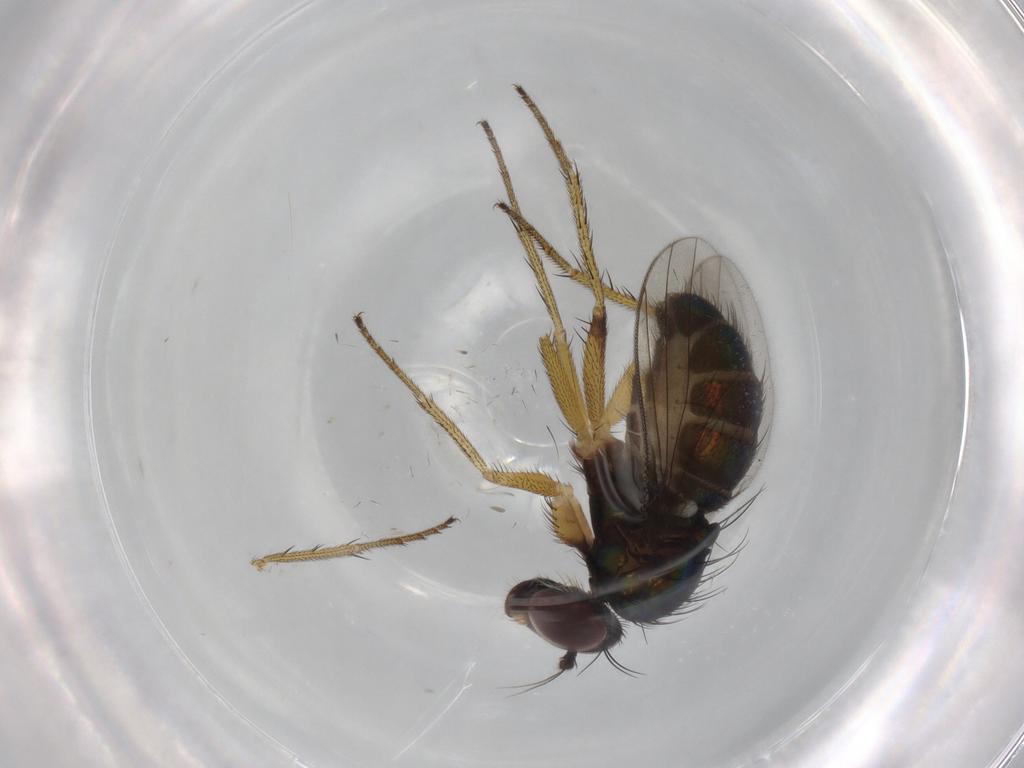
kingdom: Animalia
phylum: Arthropoda
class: Insecta
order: Diptera
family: Dolichopodidae
